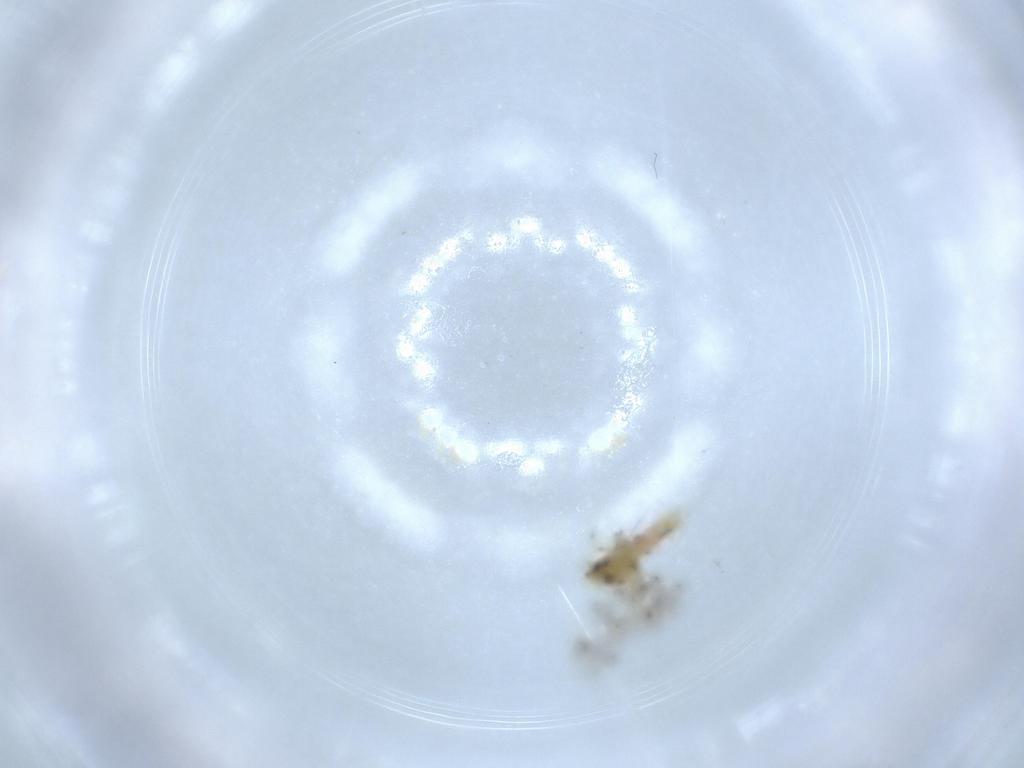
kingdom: Animalia
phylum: Arthropoda
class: Insecta
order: Hemiptera
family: Aleyrodidae
